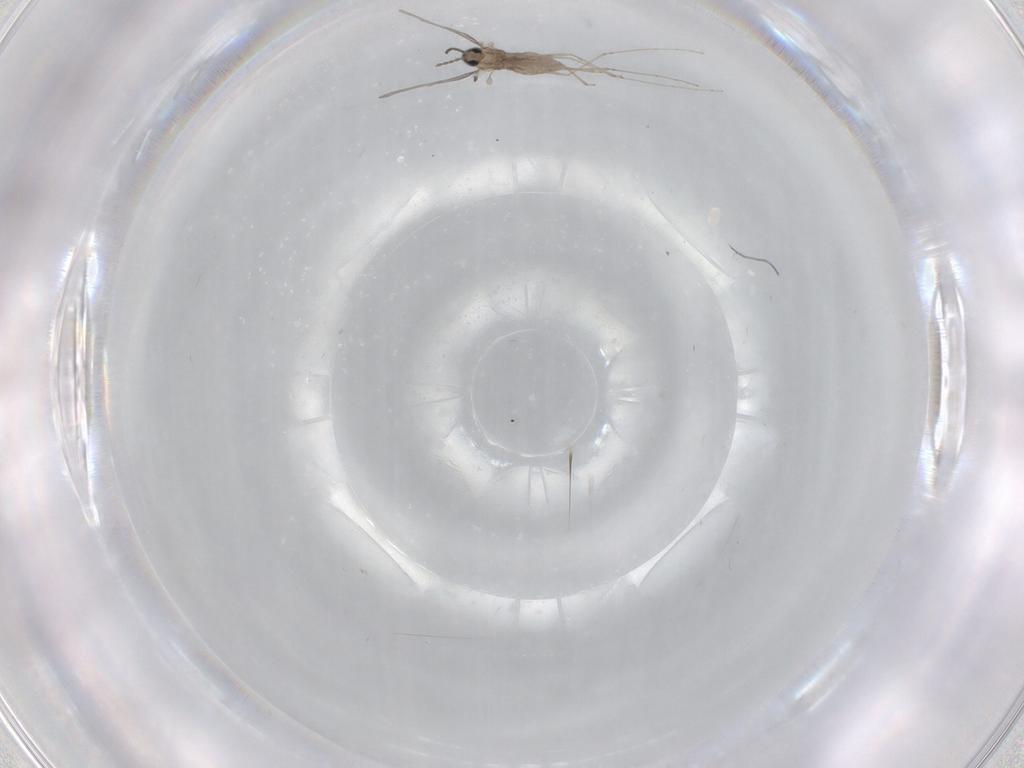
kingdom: Animalia
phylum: Arthropoda
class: Insecta
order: Diptera
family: Cecidomyiidae
